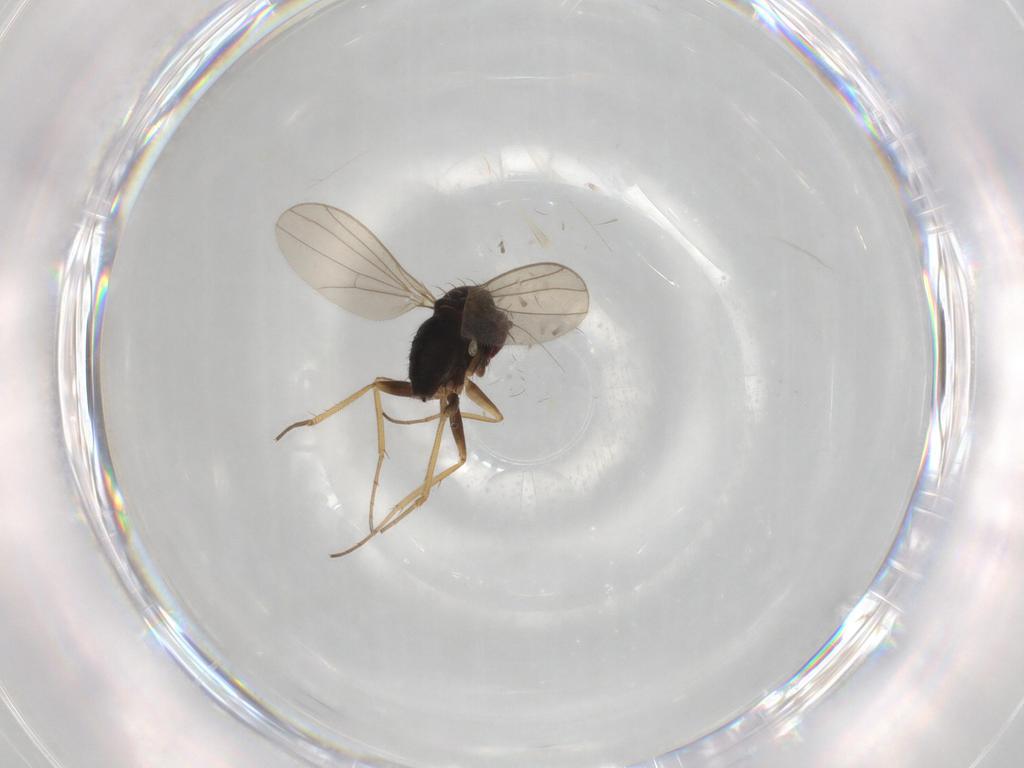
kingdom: Animalia
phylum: Arthropoda
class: Insecta
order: Diptera
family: Dolichopodidae
